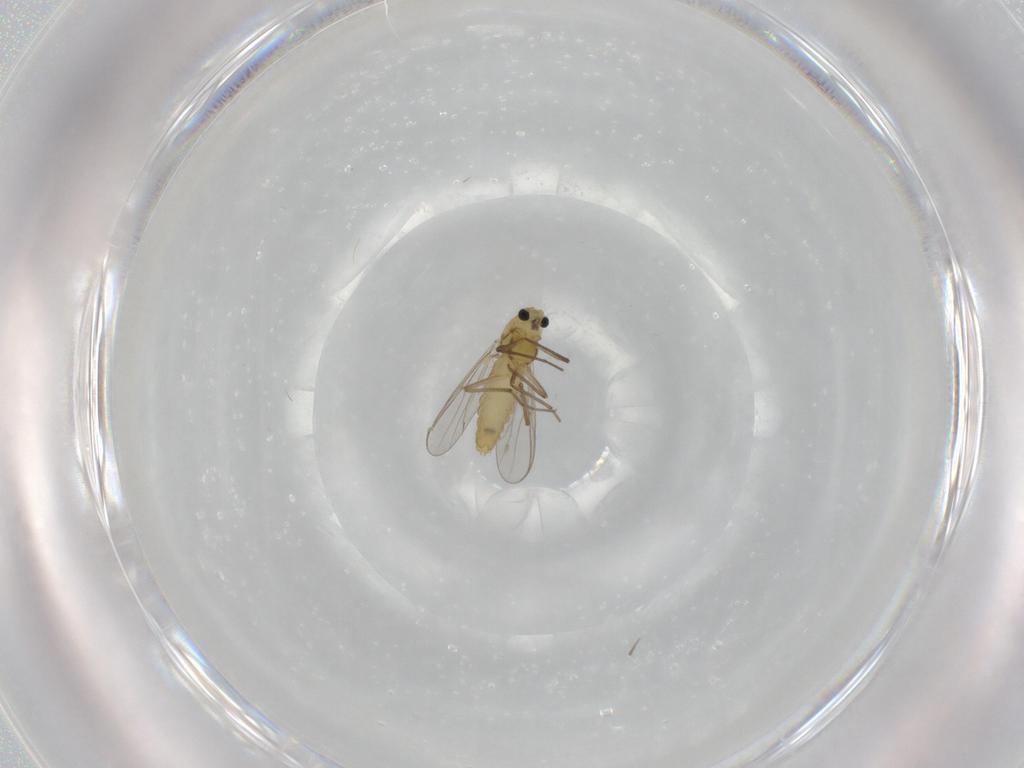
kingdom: Animalia
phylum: Arthropoda
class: Insecta
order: Diptera
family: Chironomidae
